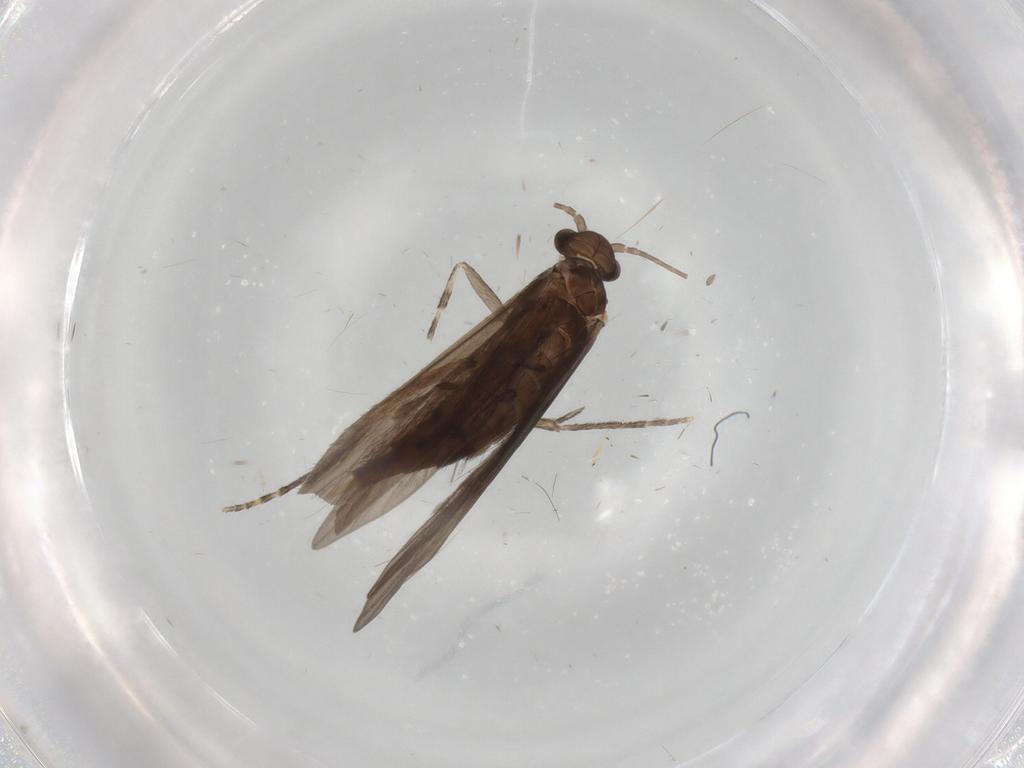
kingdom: Animalia
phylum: Arthropoda
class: Insecta
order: Trichoptera
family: Xiphocentronidae
